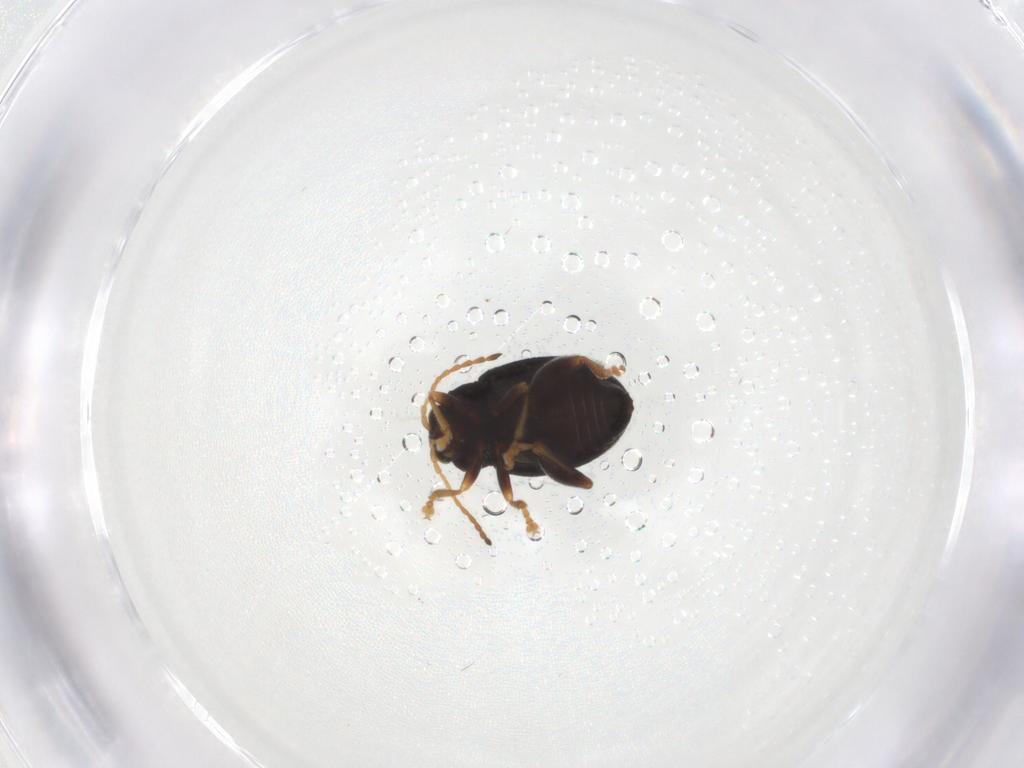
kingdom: Animalia
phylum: Arthropoda
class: Insecta
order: Coleoptera
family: Chrysomelidae
